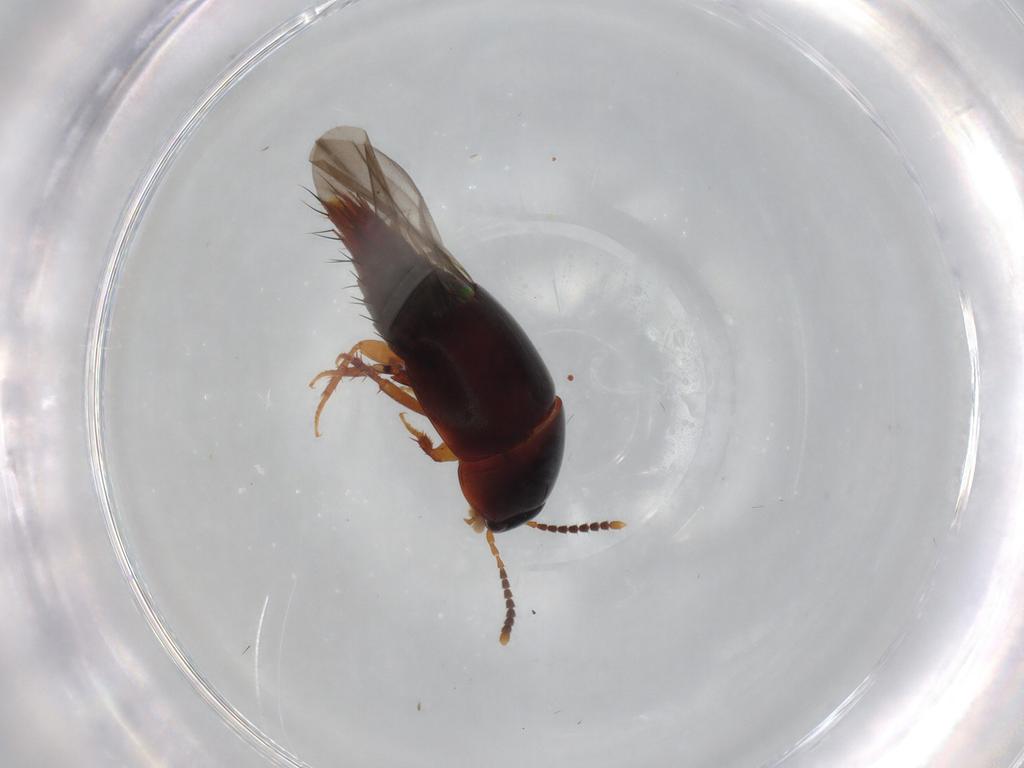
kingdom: Animalia
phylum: Arthropoda
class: Insecta
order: Coleoptera
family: Staphylinidae
